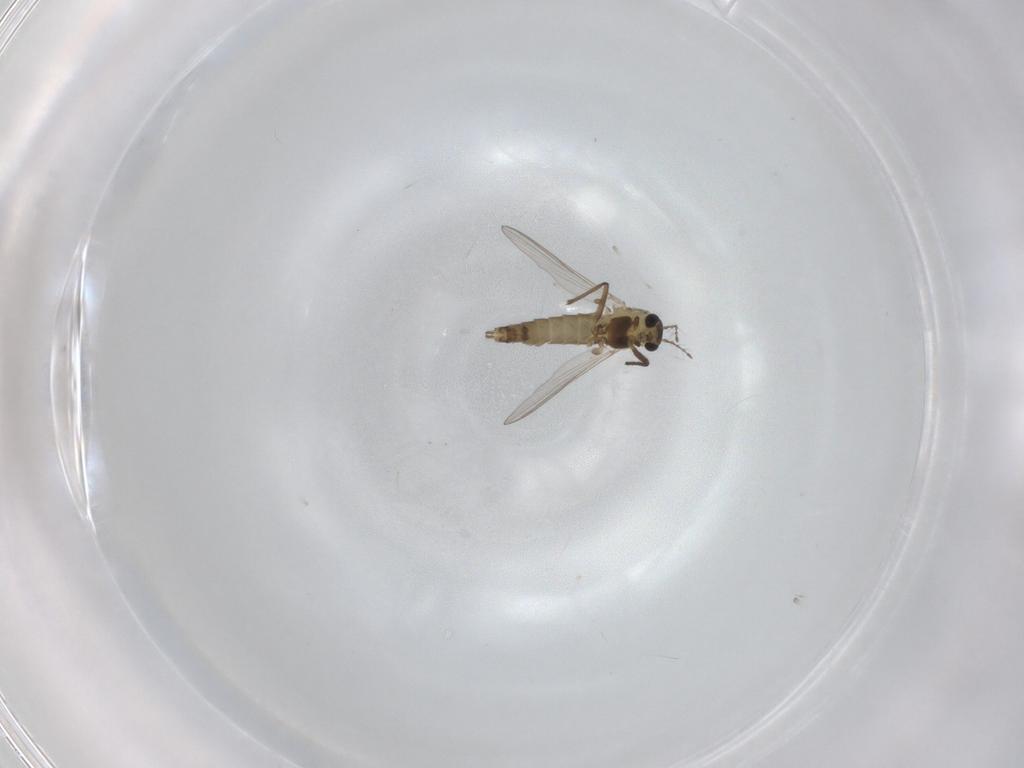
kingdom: Animalia
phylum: Arthropoda
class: Insecta
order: Diptera
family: Chironomidae
